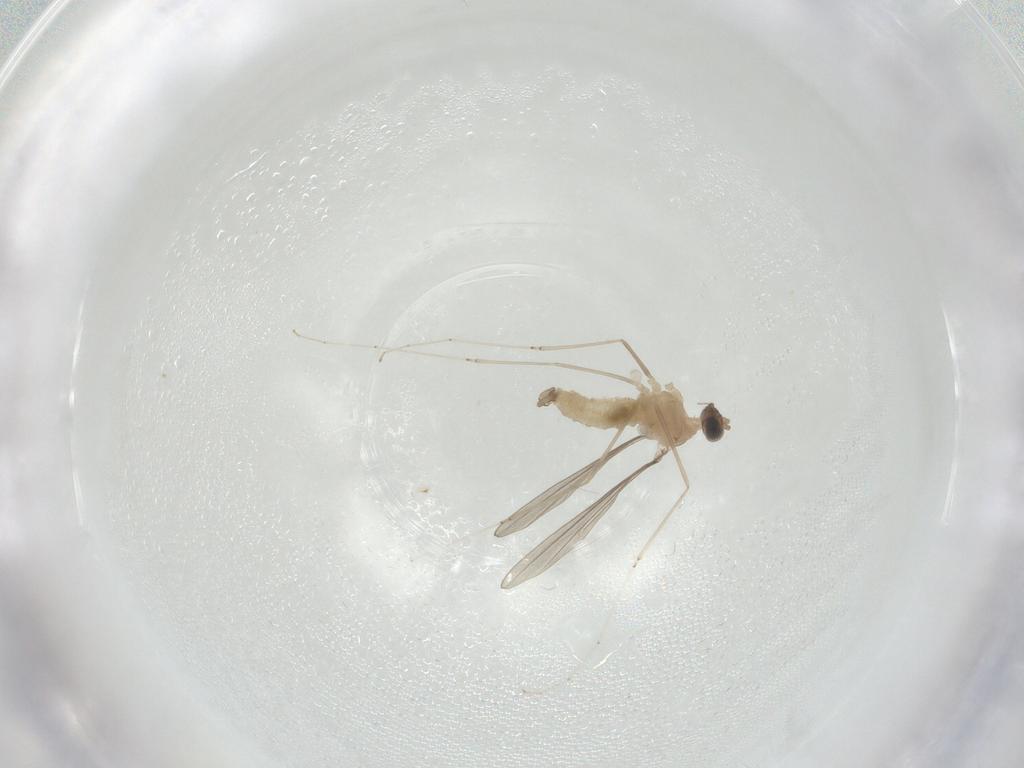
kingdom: Animalia
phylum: Arthropoda
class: Insecta
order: Diptera
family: Cecidomyiidae
